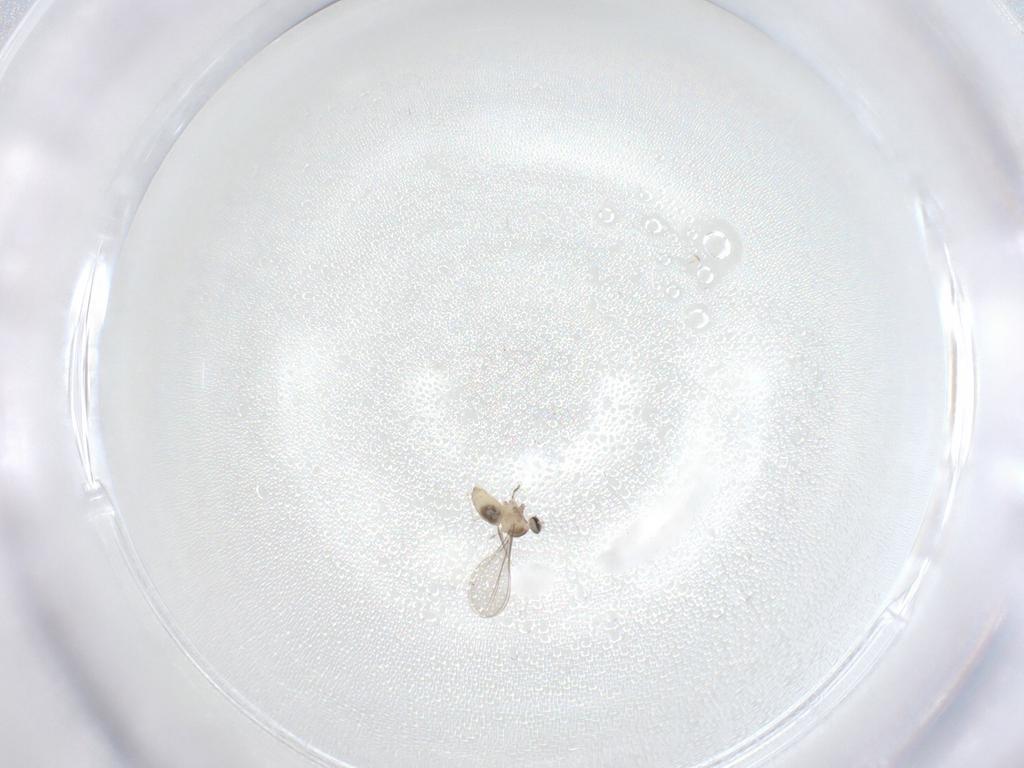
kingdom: Animalia
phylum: Arthropoda
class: Insecta
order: Diptera
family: Cecidomyiidae
